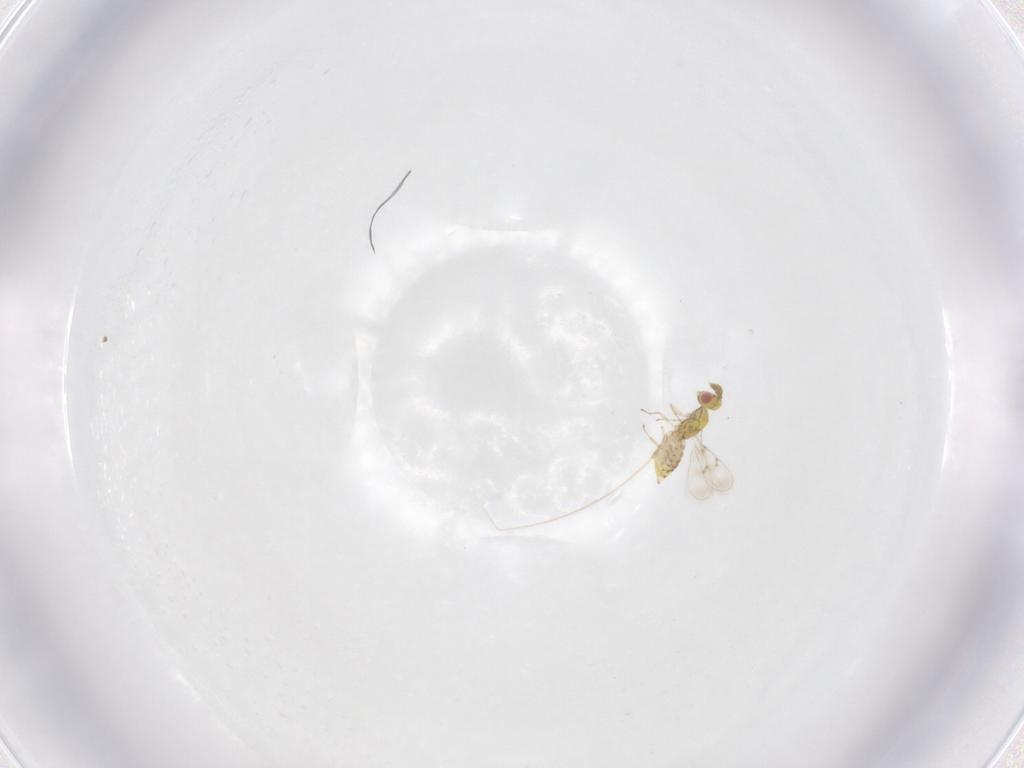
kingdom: Animalia
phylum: Arthropoda
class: Insecta
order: Hymenoptera
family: Eulophidae
